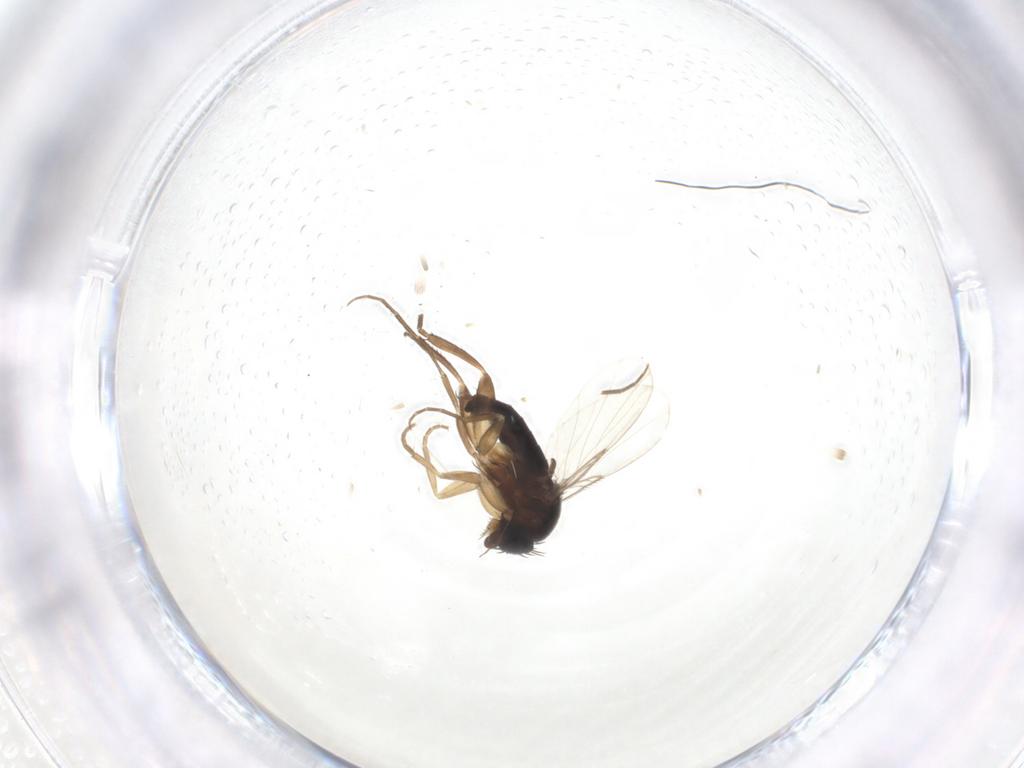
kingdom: Animalia
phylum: Arthropoda
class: Insecta
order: Diptera
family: Phoridae
